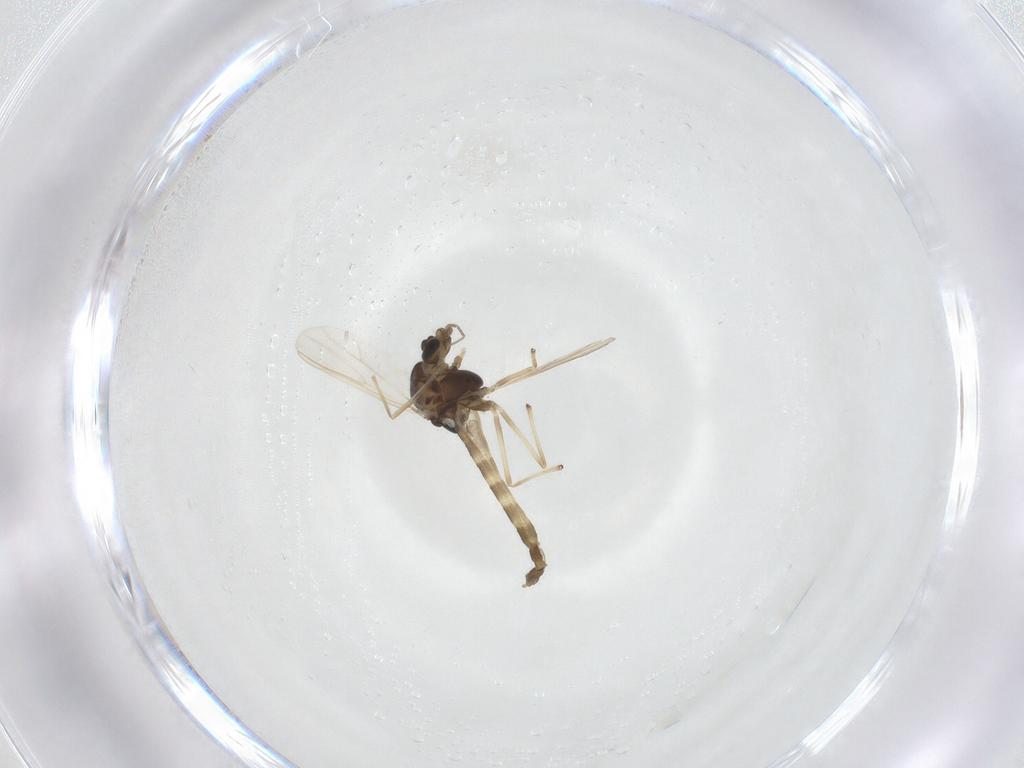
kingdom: Animalia
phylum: Arthropoda
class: Insecta
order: Diptera
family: Chironomidae
